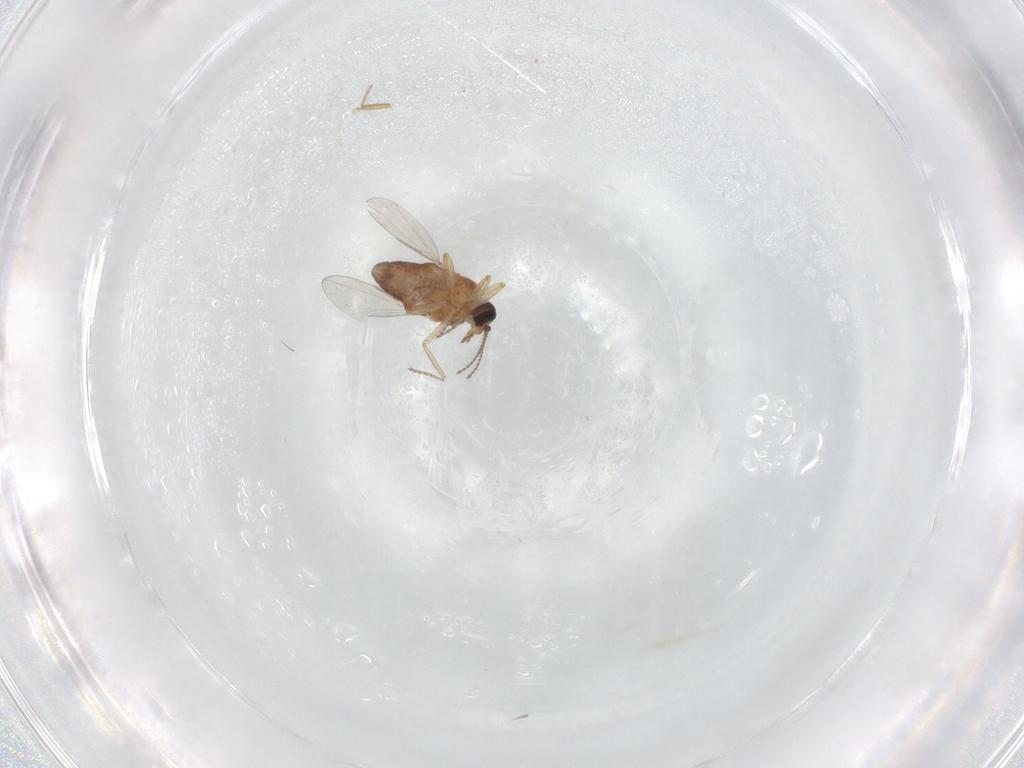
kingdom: Animalia
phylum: Arthropoda
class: Insecta
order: Diptera
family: Ceratopogonidae
